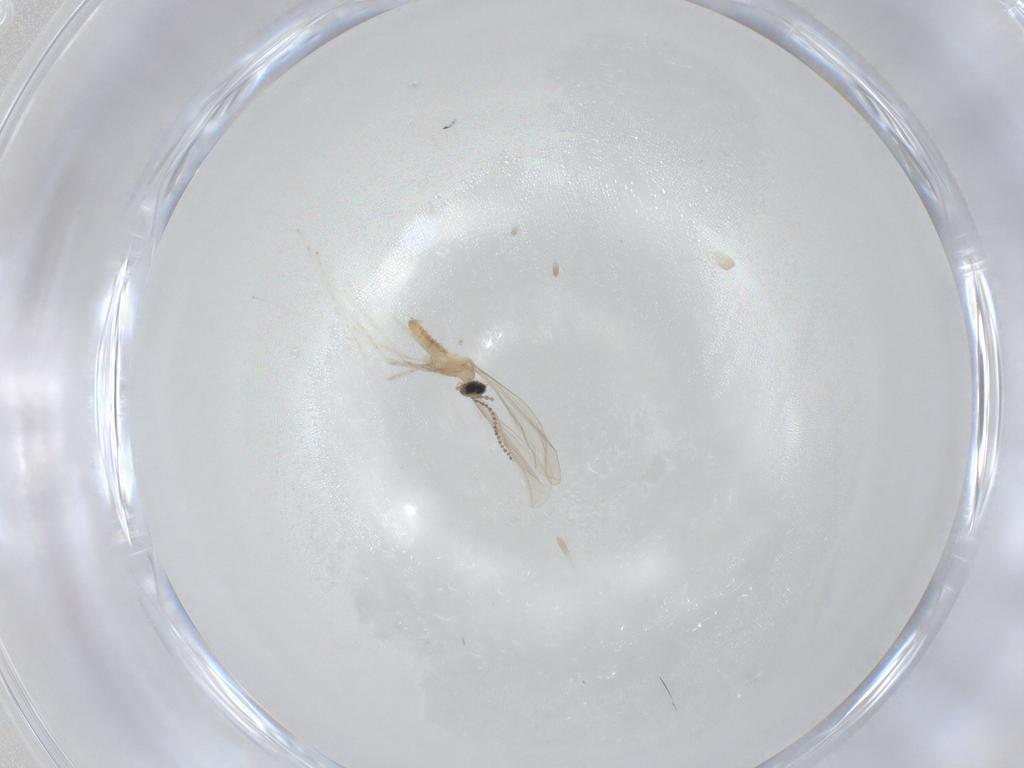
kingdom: Animalia
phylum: Arthropoda
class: Insecta
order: Diptera
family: Cecidomyiidae
